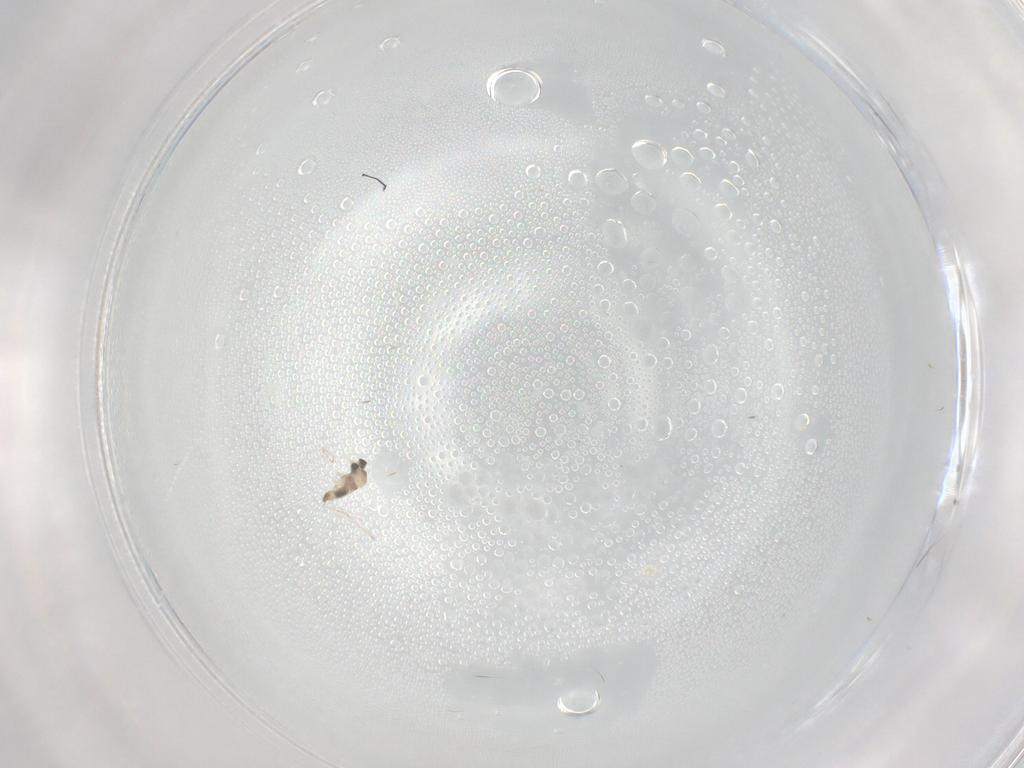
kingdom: Animalia
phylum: Arthropoda
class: Insecta
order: Diptera
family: Cecidomyiidae
